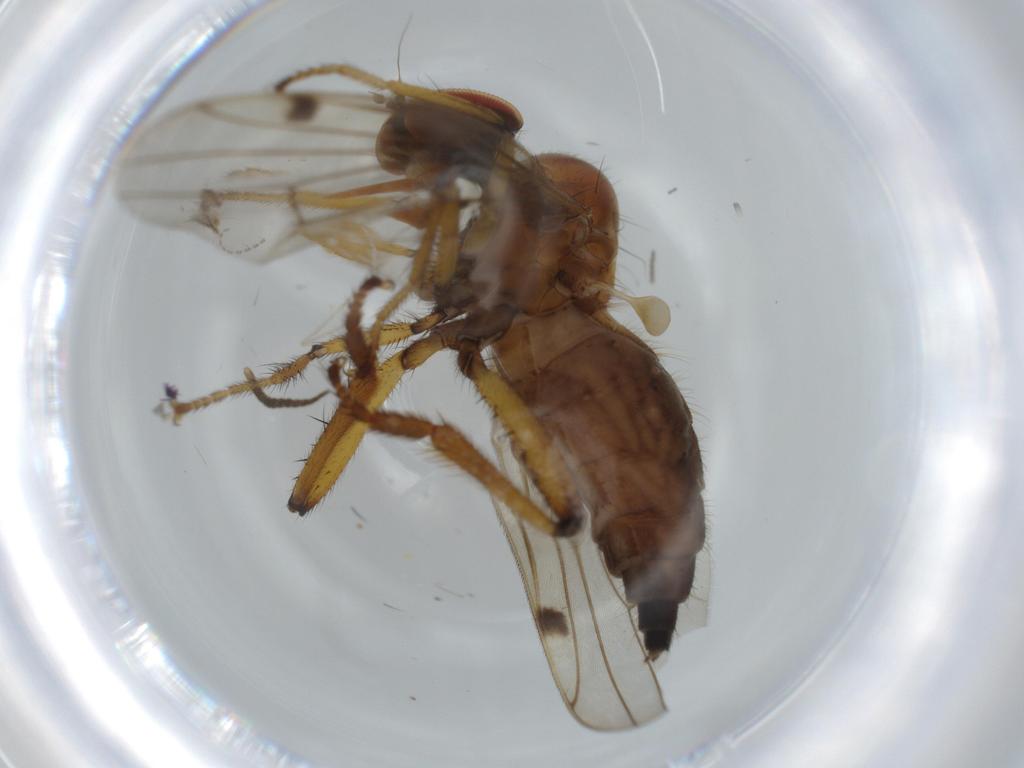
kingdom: Animalia
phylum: Arthropoda
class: Insecta
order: Diptera
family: Hybotidae
